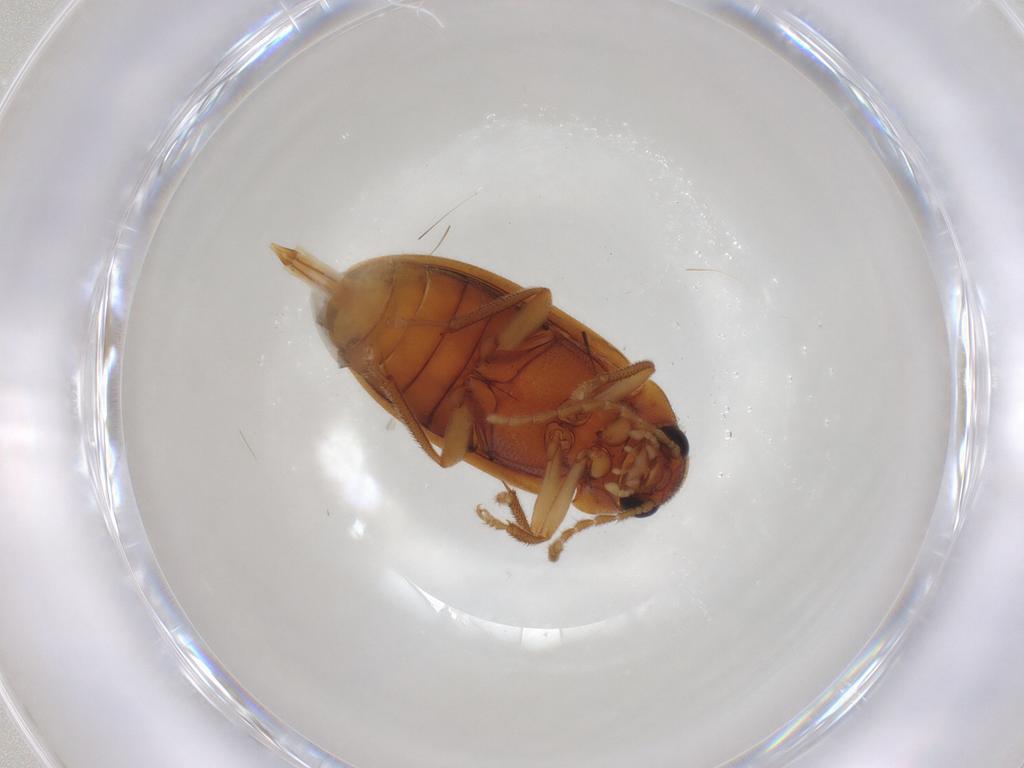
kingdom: Animalia
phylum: Arthropoda
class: Insecta
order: Coleoptera
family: Ptilodactylidae
